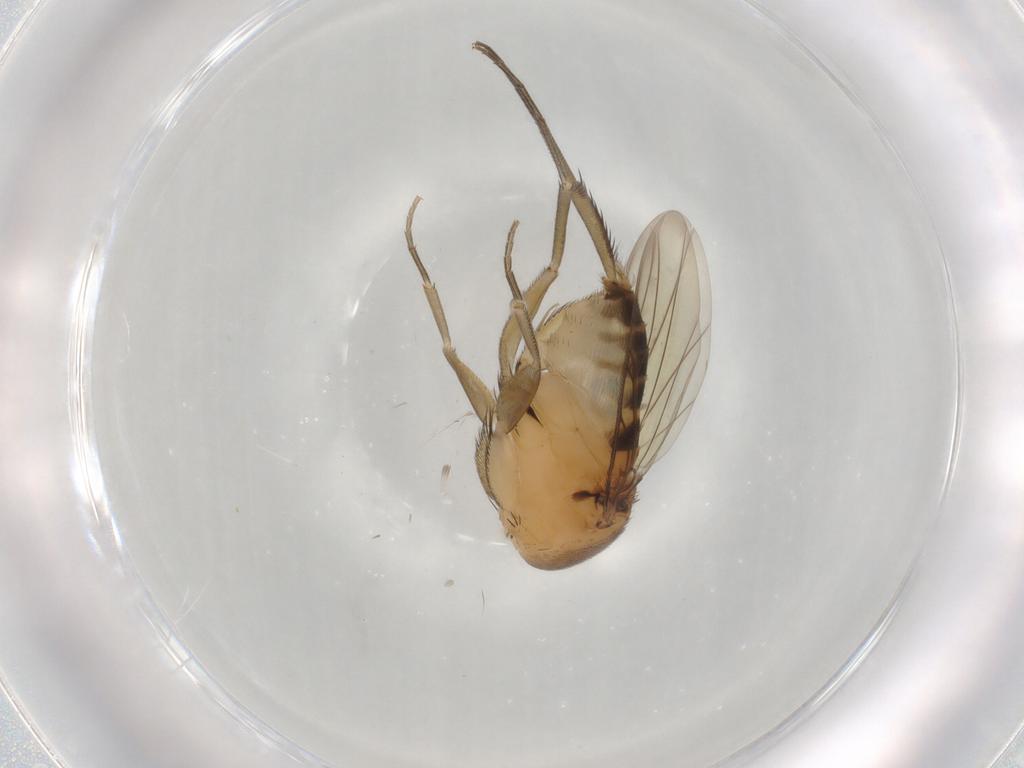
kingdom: Animalia
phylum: Arthropoda
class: Insecta
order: Diptera
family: Phoridae
